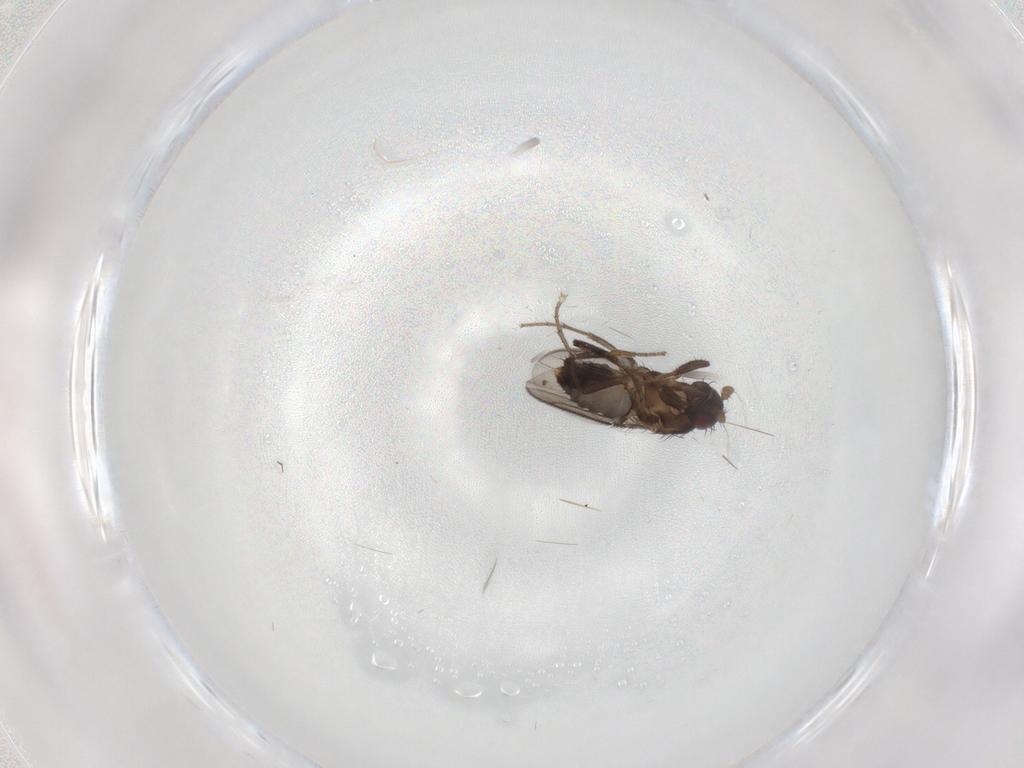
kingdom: Animalia
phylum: Arthropoda
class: Insecta
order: Diptera
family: Sphaeroceridae
